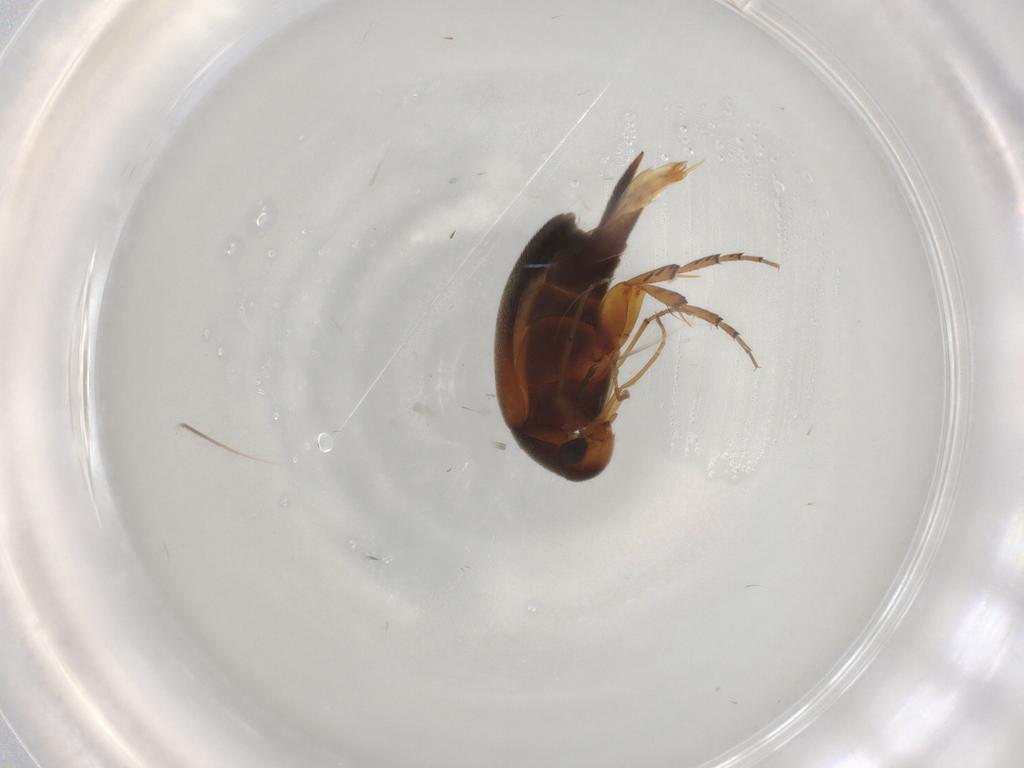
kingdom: Animalia
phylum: Arthropoda
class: Insecta
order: Coleoptera
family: Mordellidae
